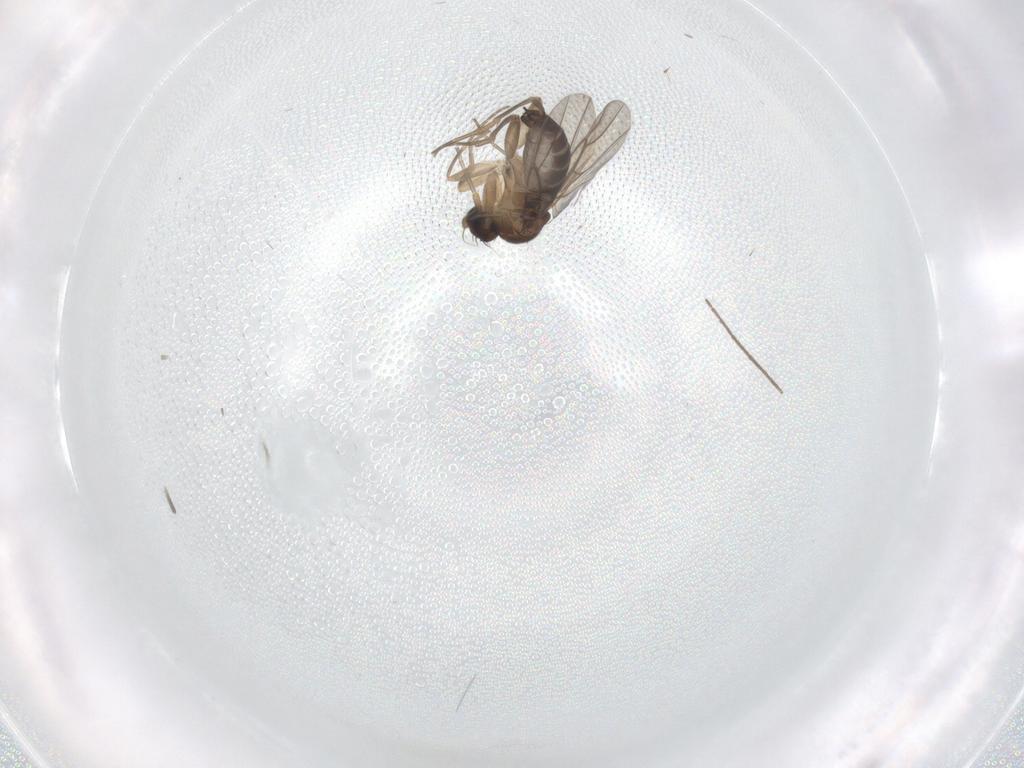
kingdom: Animalia
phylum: Arthropoda
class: Insecta
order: Diptera
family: Phoridae
